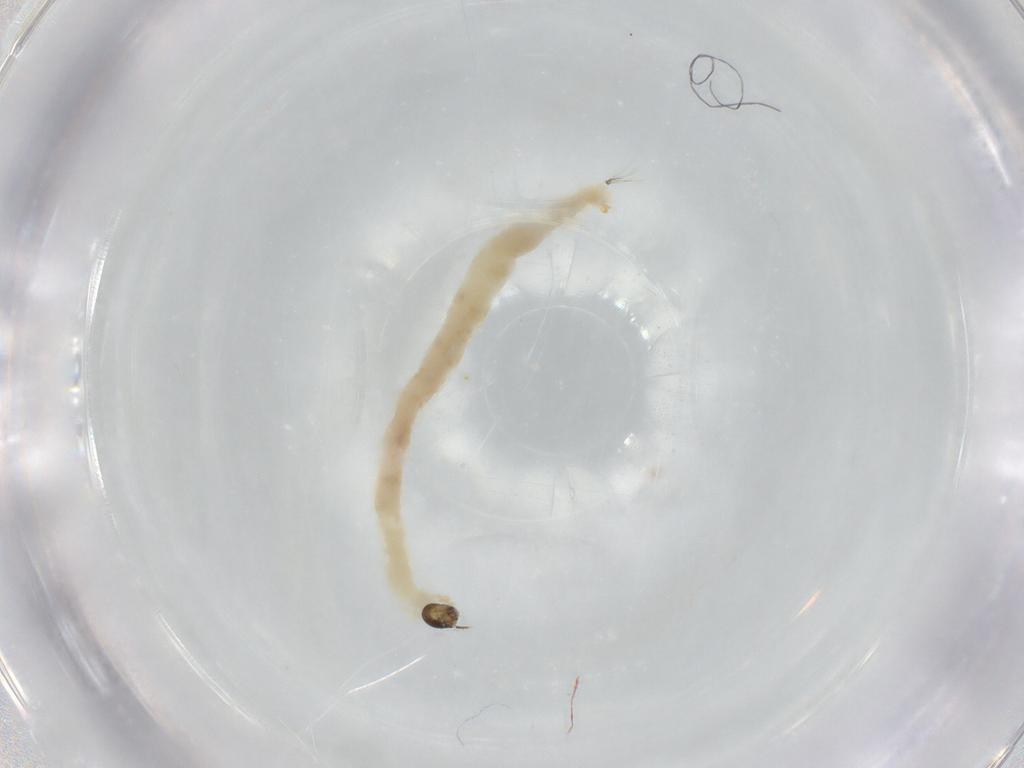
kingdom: Animalia
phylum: Arthropoda
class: Insecta
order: Diptera
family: Chironomidae
